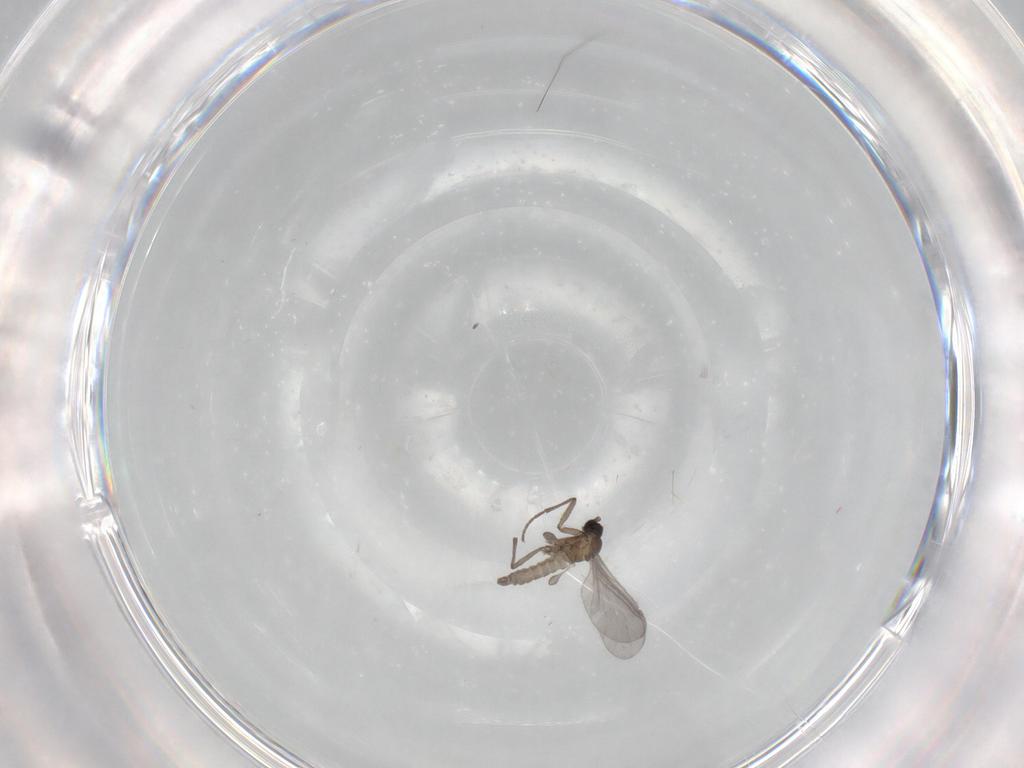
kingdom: Animalia
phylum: Arthropoda
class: Insecta
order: Diptera
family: Sciaridae
